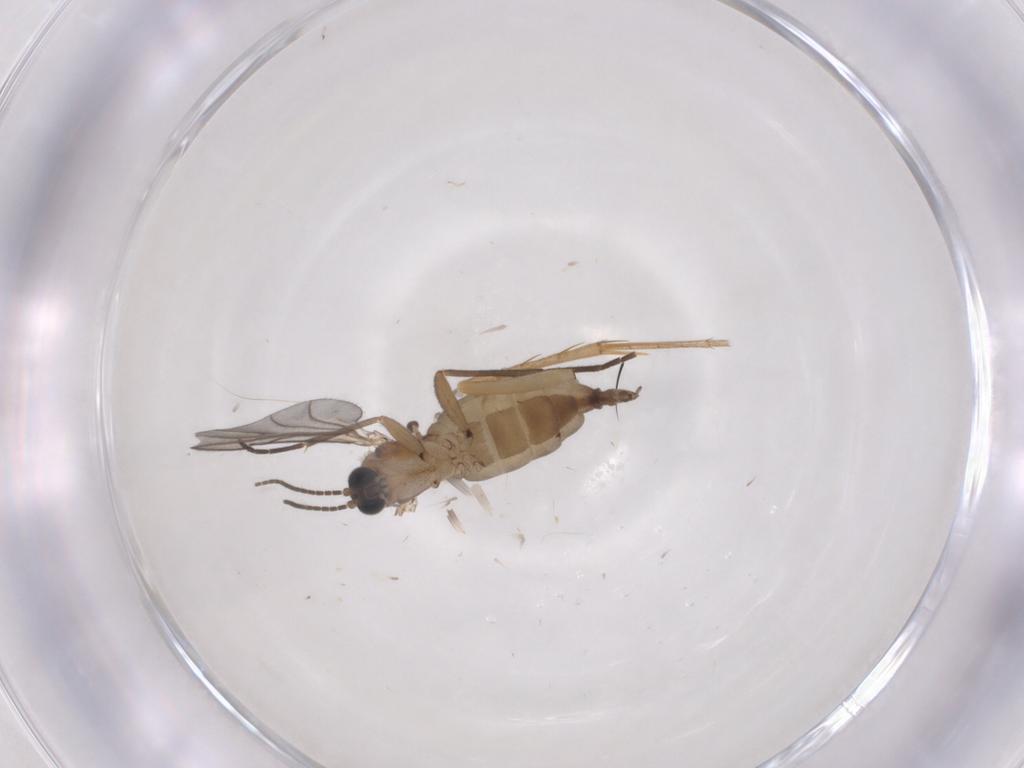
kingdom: Animalia
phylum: Arthropoda
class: Insecta
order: Diptera
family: Sciaridae
